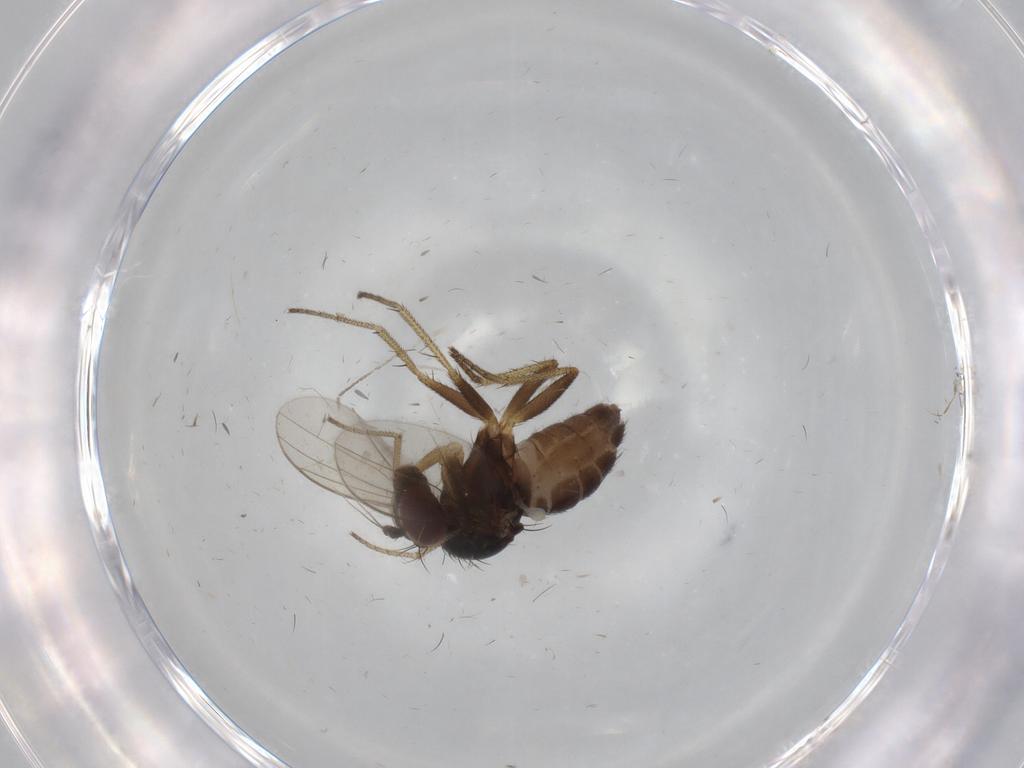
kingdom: Animalia
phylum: Arthropoda
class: Insecta
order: Diptera
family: Dolichopodidae
